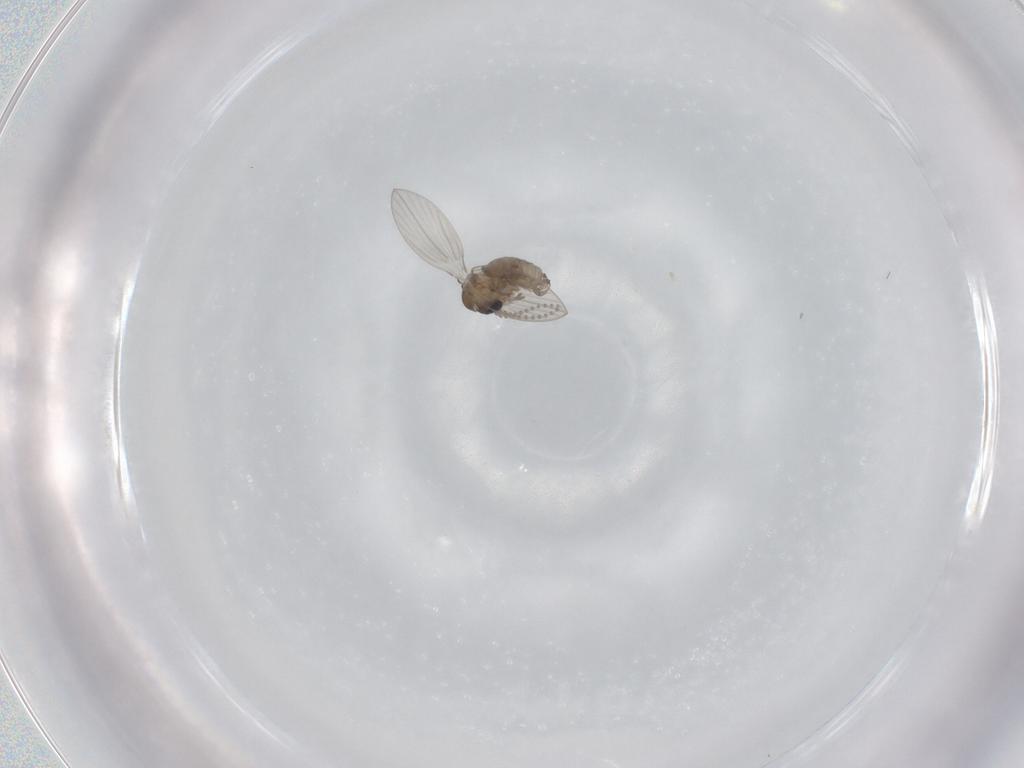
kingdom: Animalia
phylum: Arthropoda
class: Insecta
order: Diptera
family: Psychodidae
